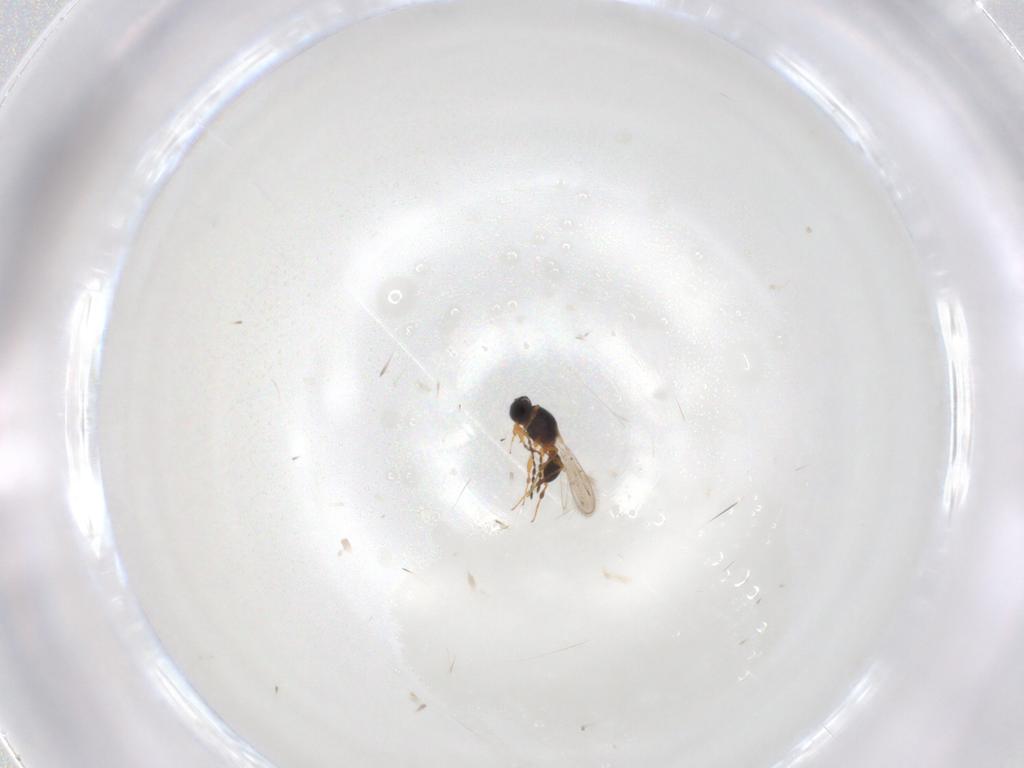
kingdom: Animalia
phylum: Arthropoda
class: Insecta
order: Hymenoptera
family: Platygastridae
